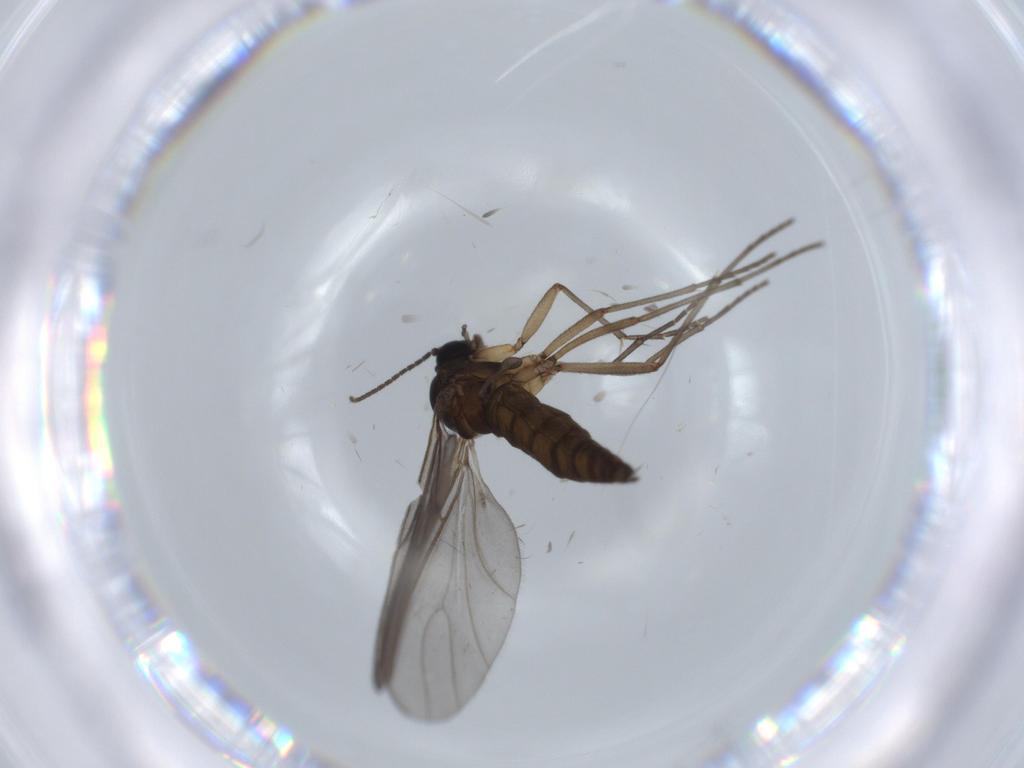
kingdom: Animalia
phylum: Arthropoda
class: Insecta
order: Diptera
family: Sciaridae
